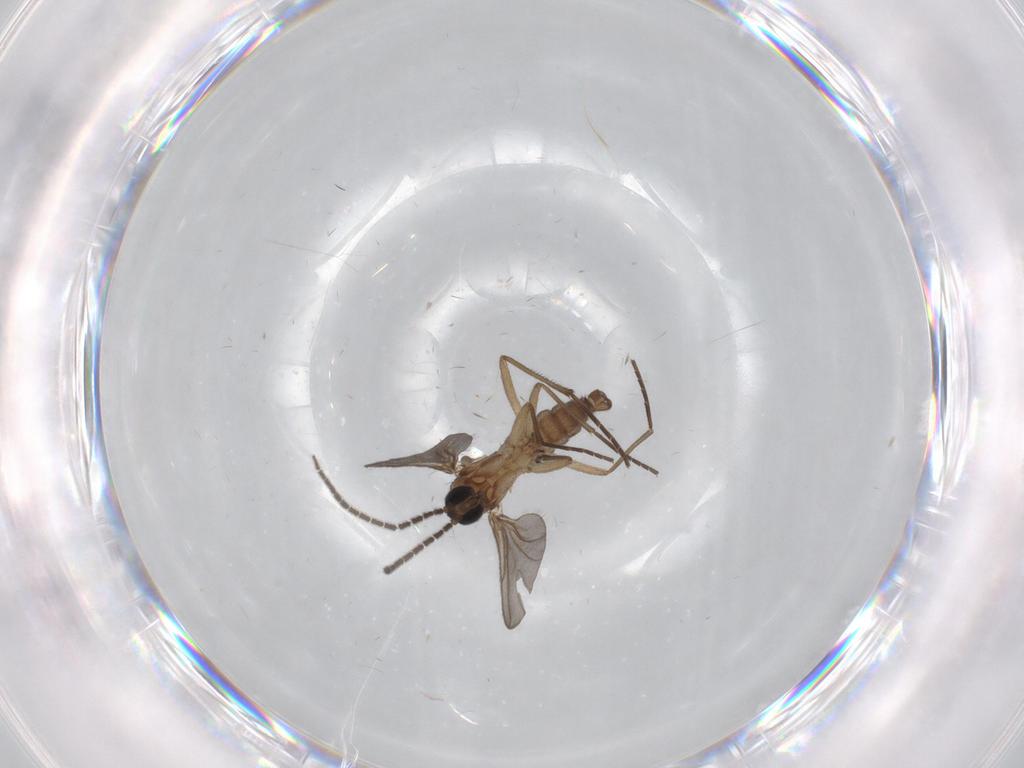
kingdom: Animalia
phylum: Arthropoda
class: Insecta
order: Diptera
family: Sciaridae
